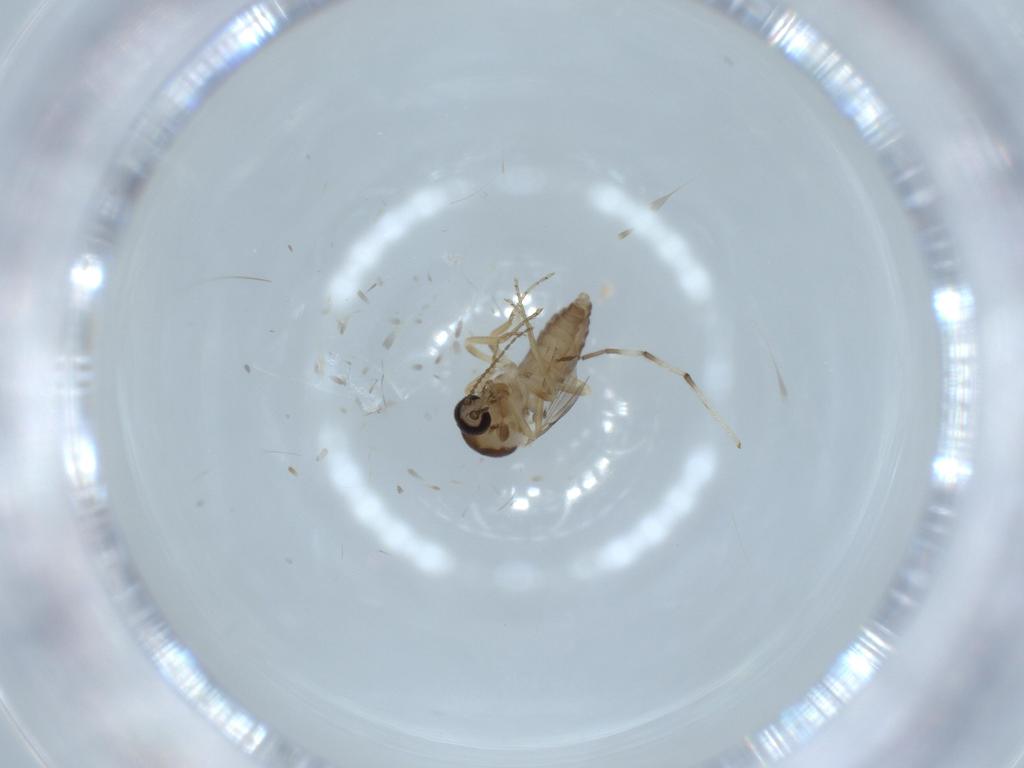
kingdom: Animalia
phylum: Arthropoda
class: Insecta
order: Diptera
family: Ceratopogonidae
